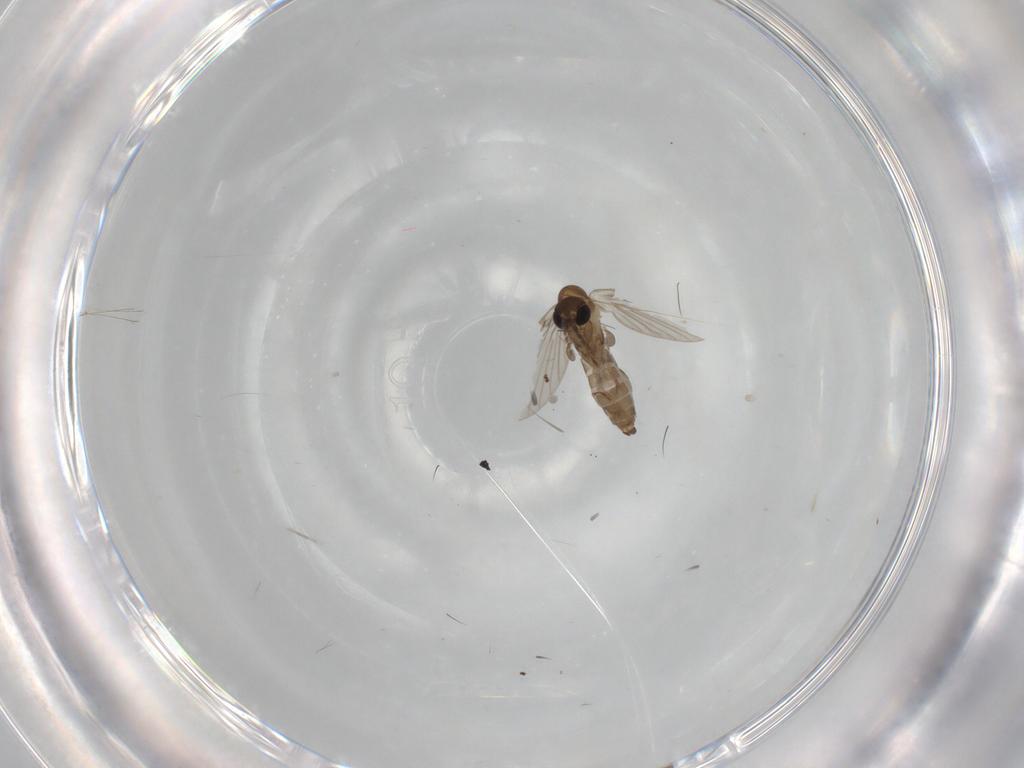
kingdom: Animalia
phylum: Arthropoda
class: Insecta
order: Diptera
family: Sciaridae
